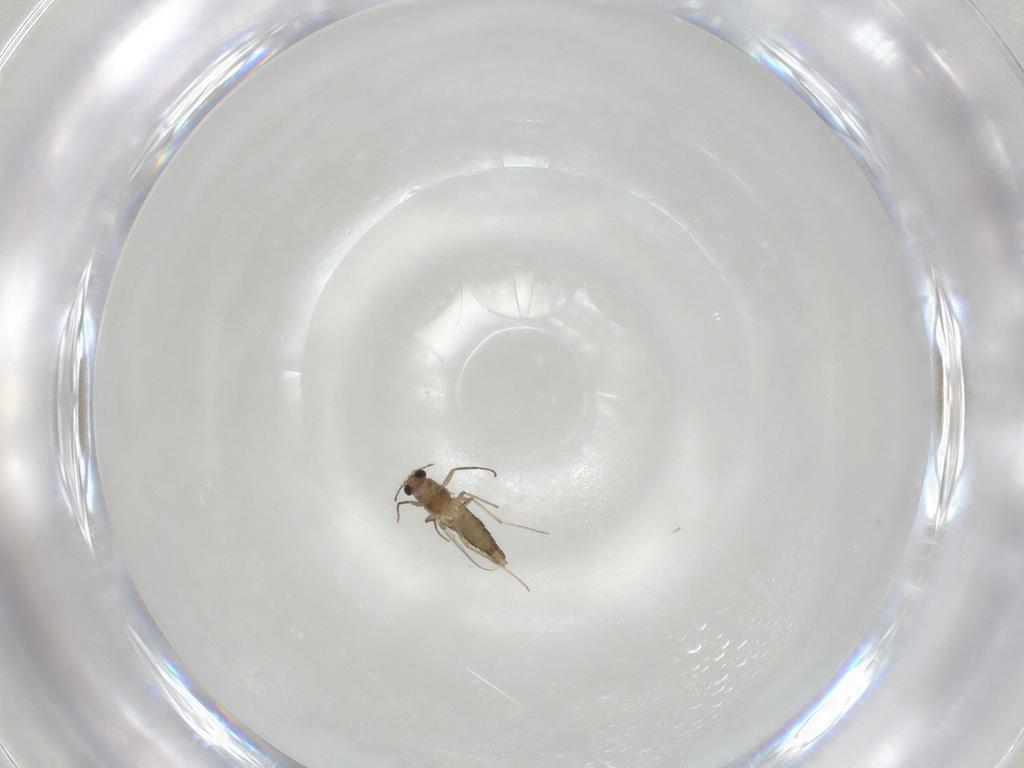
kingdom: Animalia
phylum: Arthropoda
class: Insecta
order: Diptera
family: Chironomidae
